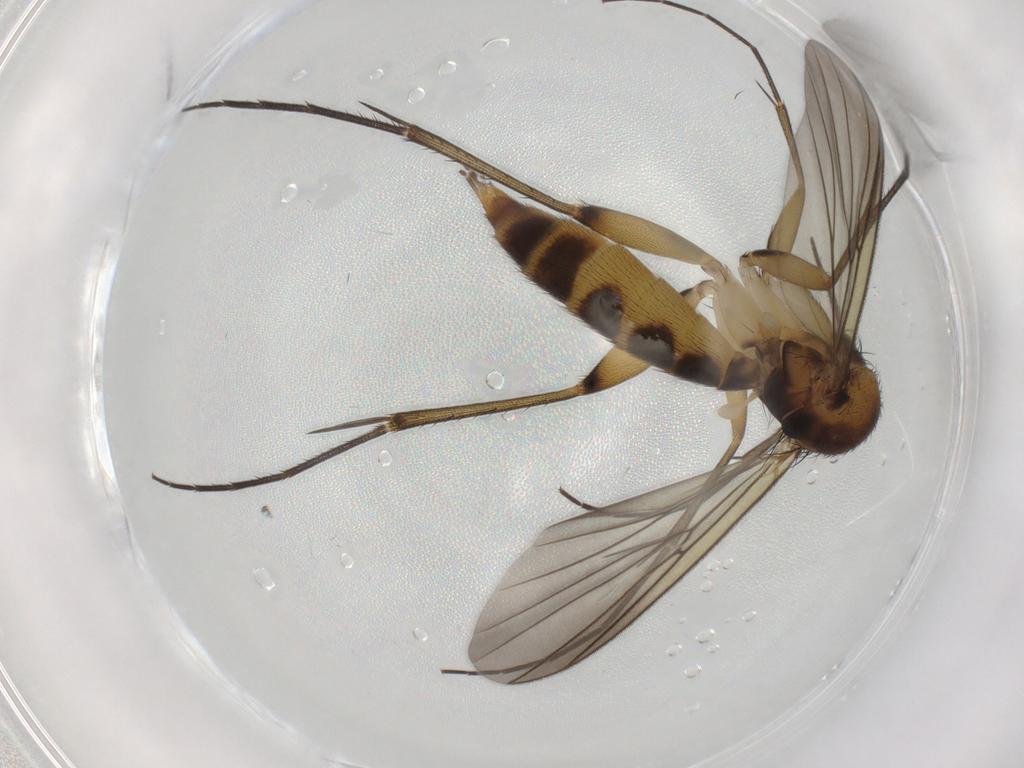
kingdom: Animalia
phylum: Arthropoda
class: Insecta
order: Diptera
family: Mycetophilidae
